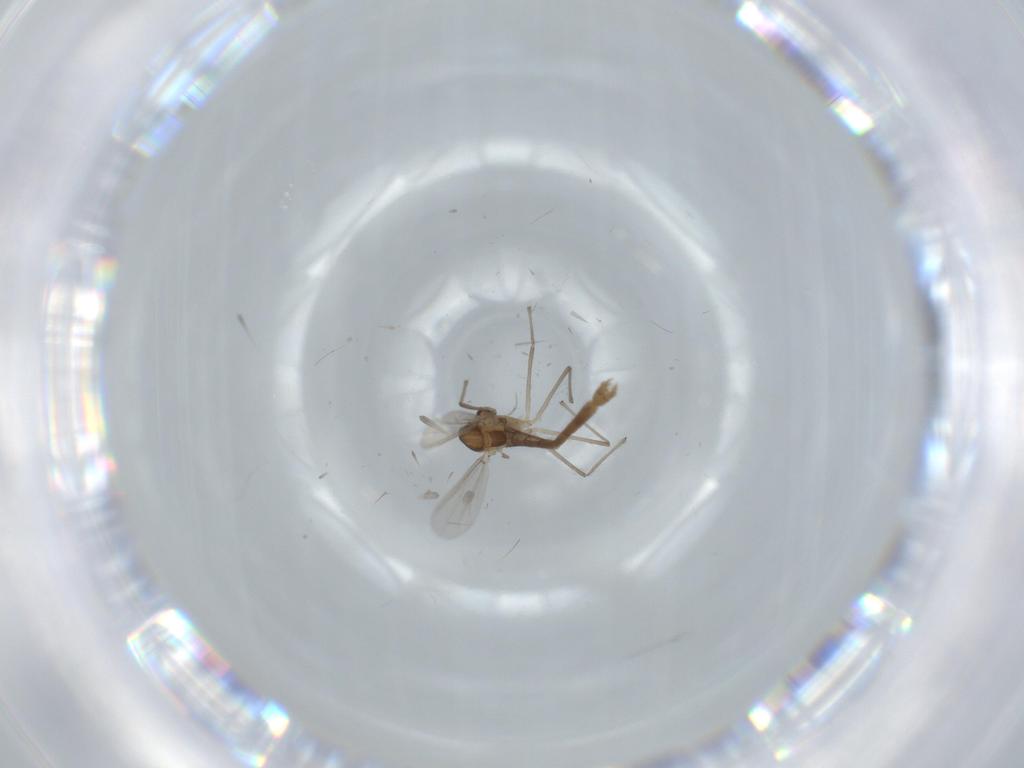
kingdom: Animalia
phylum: Arthropoda
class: Insecta
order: Diptera
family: Chironomidae
